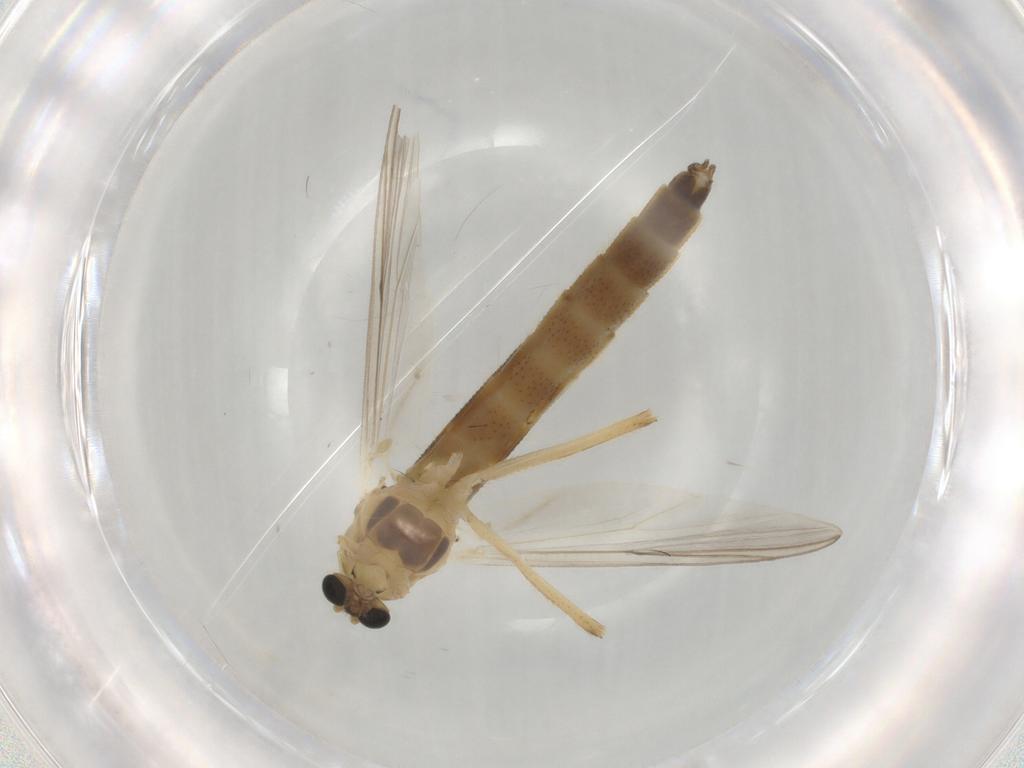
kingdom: Animalia
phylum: Arthropoda
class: Insecta
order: Diptera
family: Chironomidae
